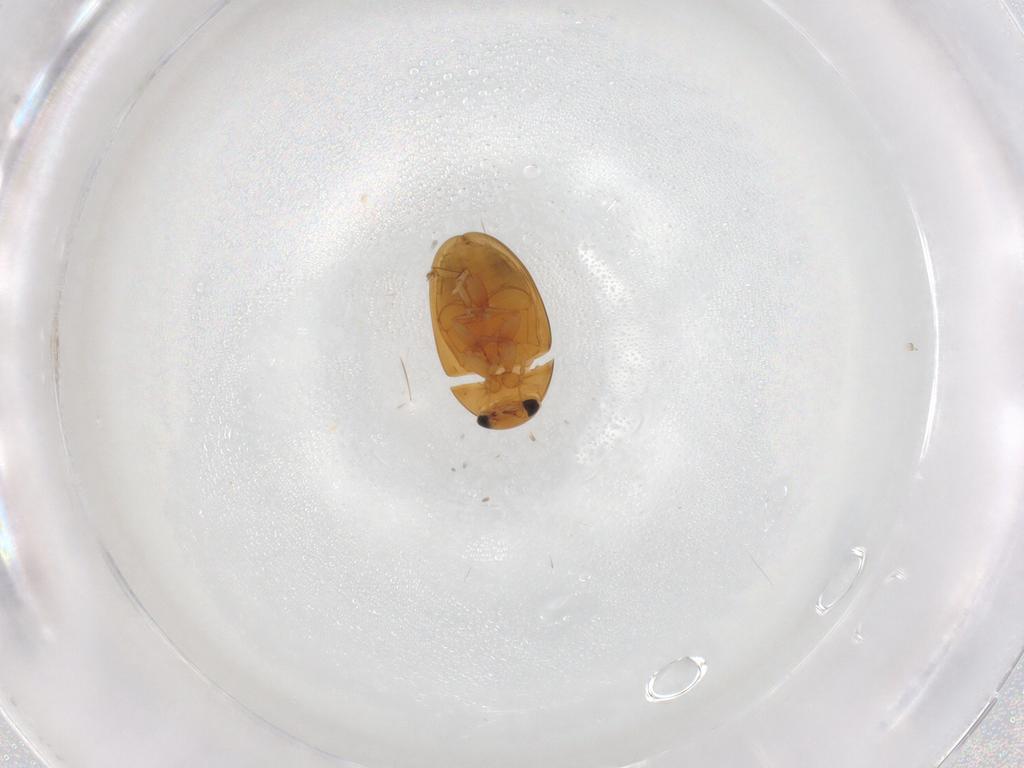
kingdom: Animalia
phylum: Arthropoda
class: Insecta
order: Coleoptera
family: Phalacridae
